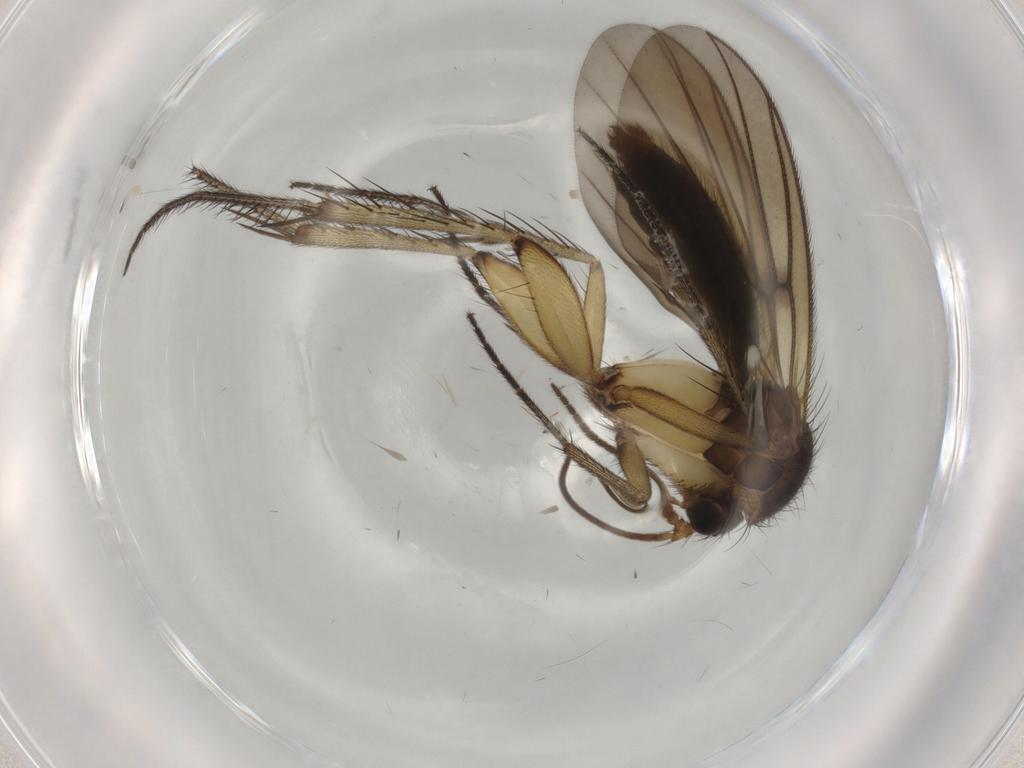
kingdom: Animalia
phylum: Arthropoda
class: Insecta
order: Diptera
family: Mycetophilidae
